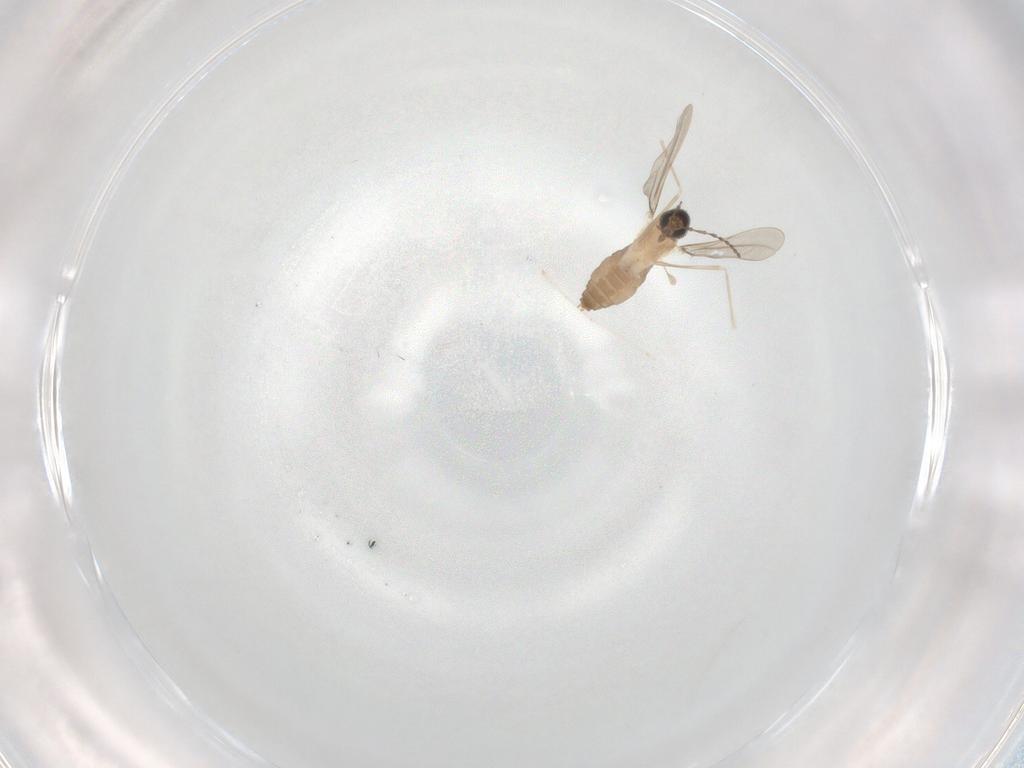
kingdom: Animalia
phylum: Arthropoda
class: Insecta
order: Diptera
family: Cecidomyiidae
